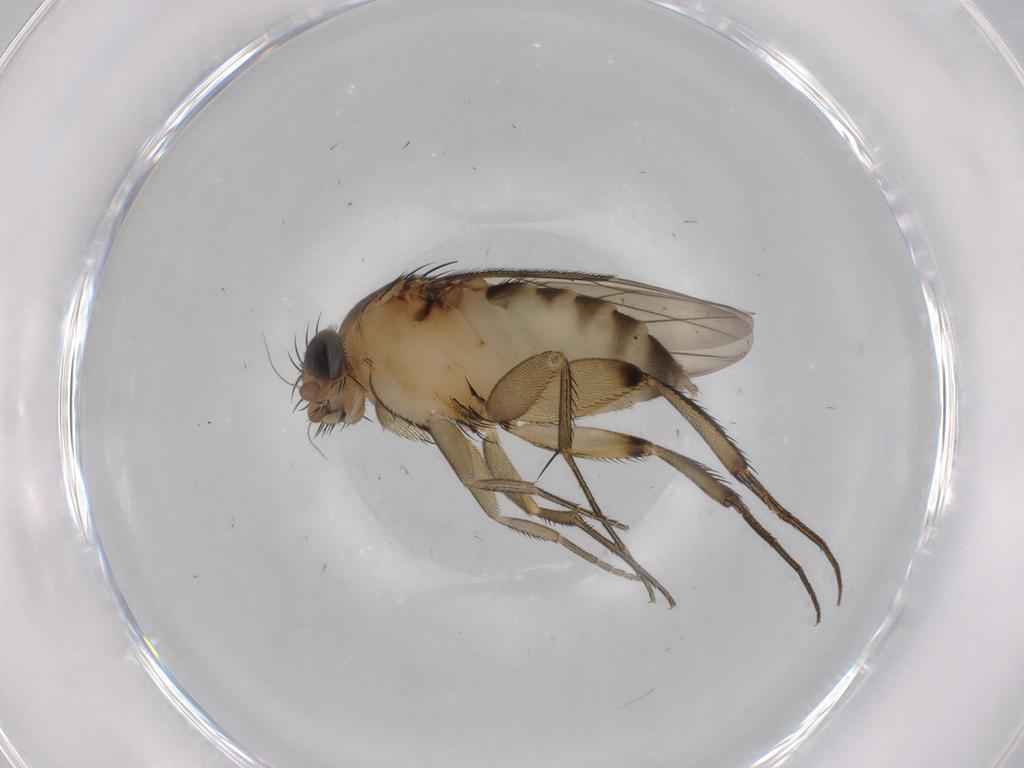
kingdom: Animalia
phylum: Arthropoda
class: Insecta
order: Diptera
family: Cecidomyiidae
